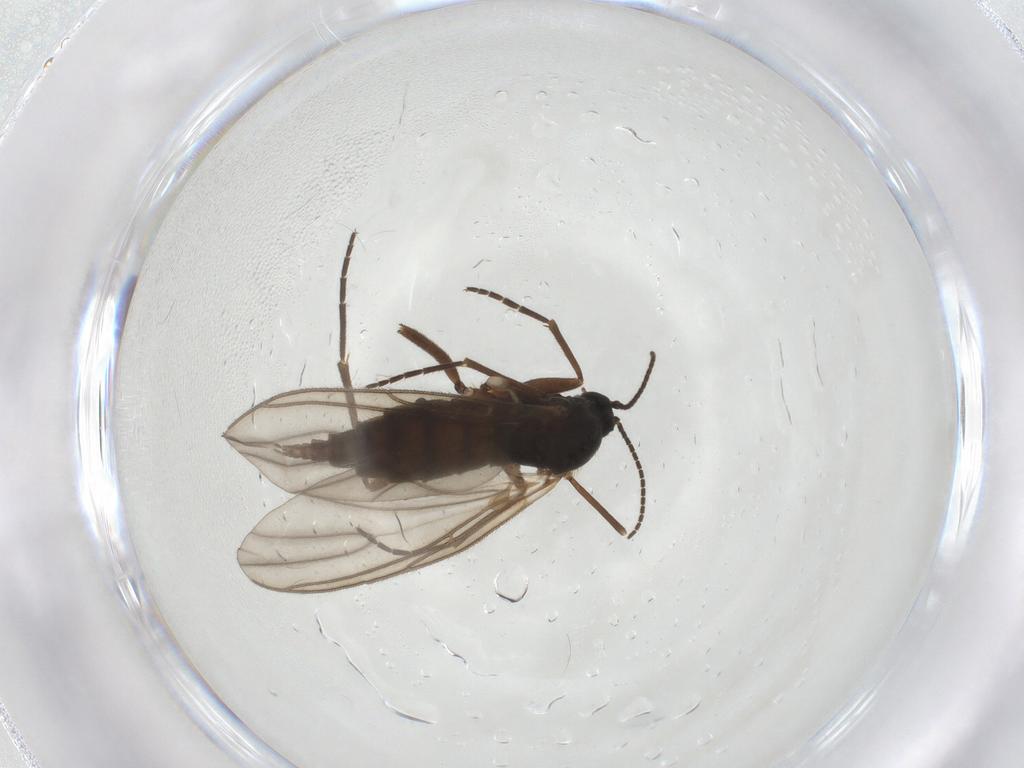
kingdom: Animalia
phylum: Arthropoda
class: Insecta
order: Diptera
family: Sciaridae
